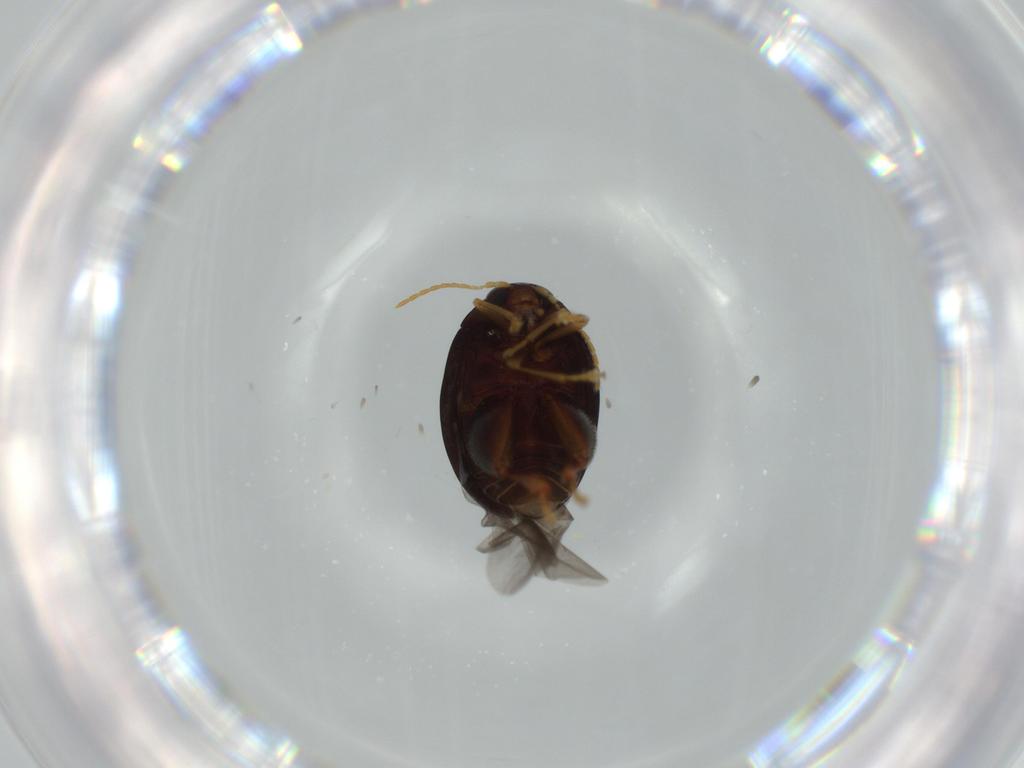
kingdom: Animalia
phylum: Arthropoda
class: Insecta
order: Coleoptera
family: Chrysomelidae
